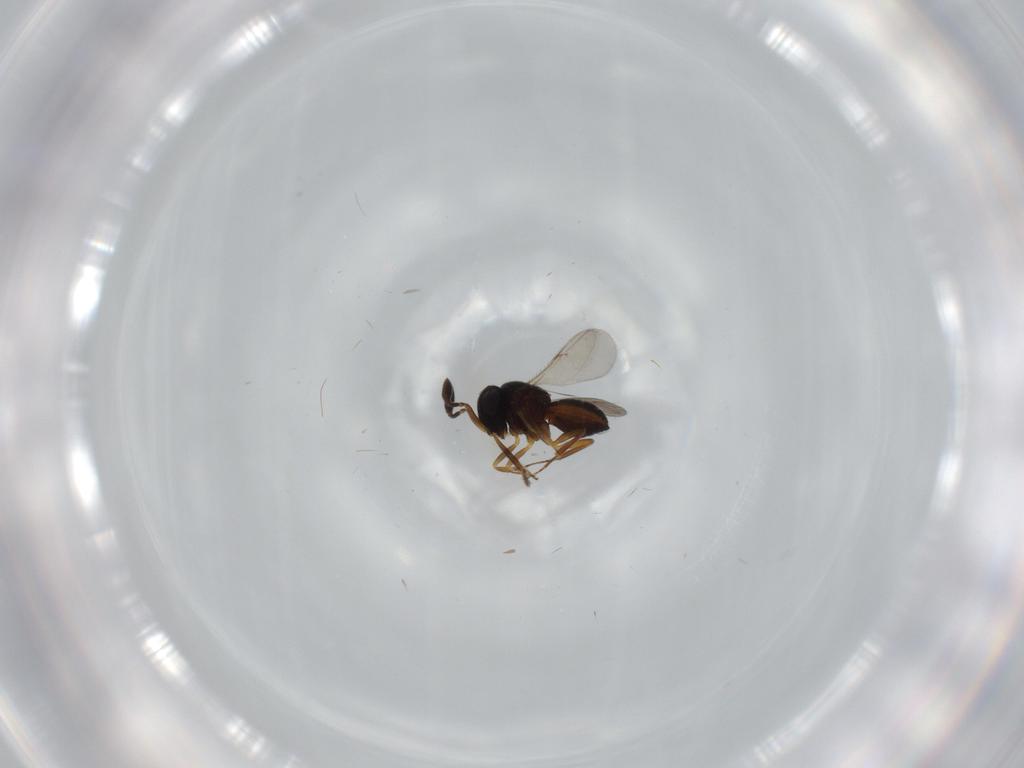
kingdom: Animalia
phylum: Arthropoda
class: Insecta
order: Hymenoptera
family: Scelionidae
